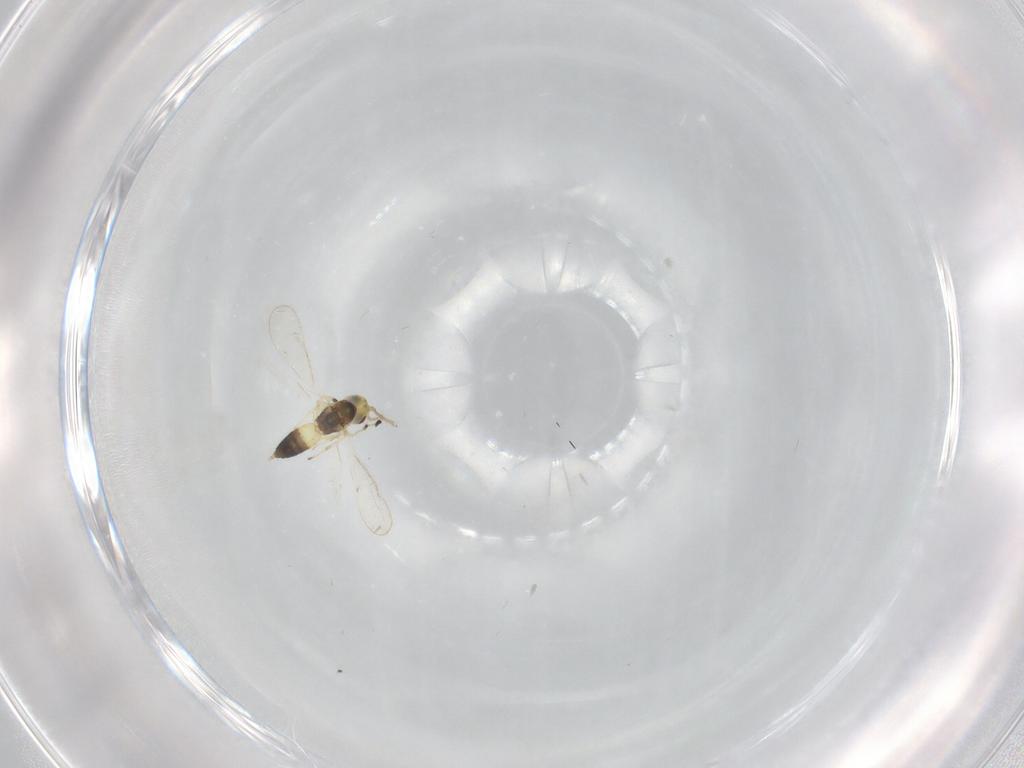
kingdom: Animalia
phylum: Arthropoda
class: Insecta
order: Hymenoptera
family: Eulophidae
